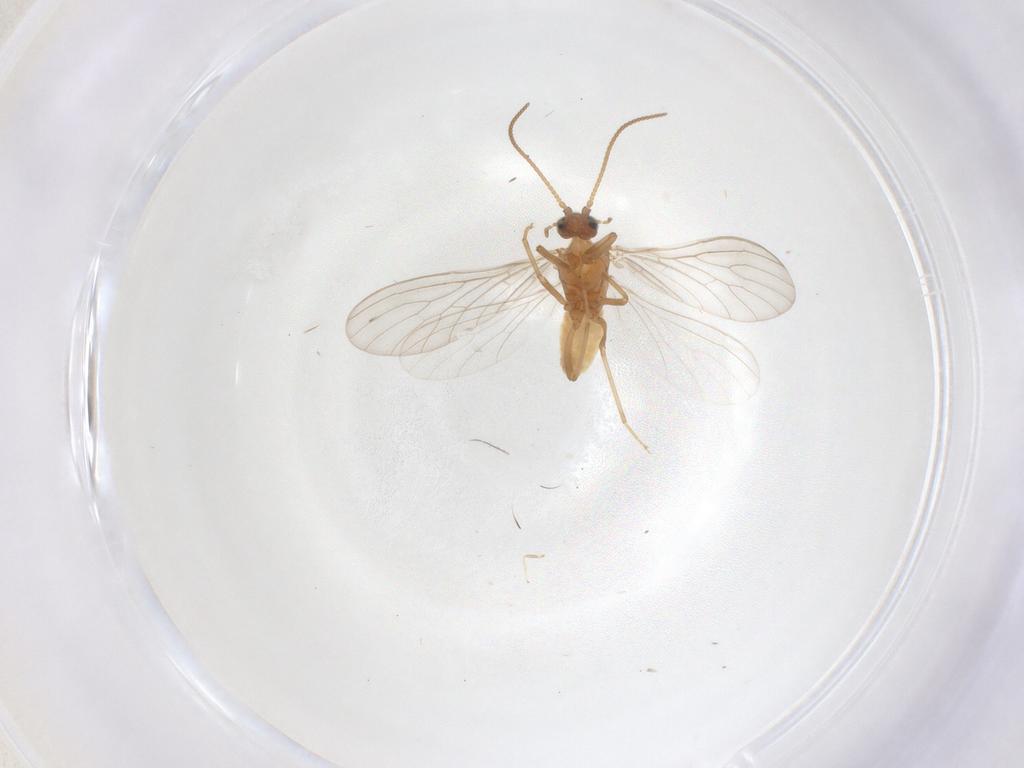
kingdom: Animalia
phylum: Arthropoda
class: Insecta
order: Neuroptera
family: Coniopterygidae
